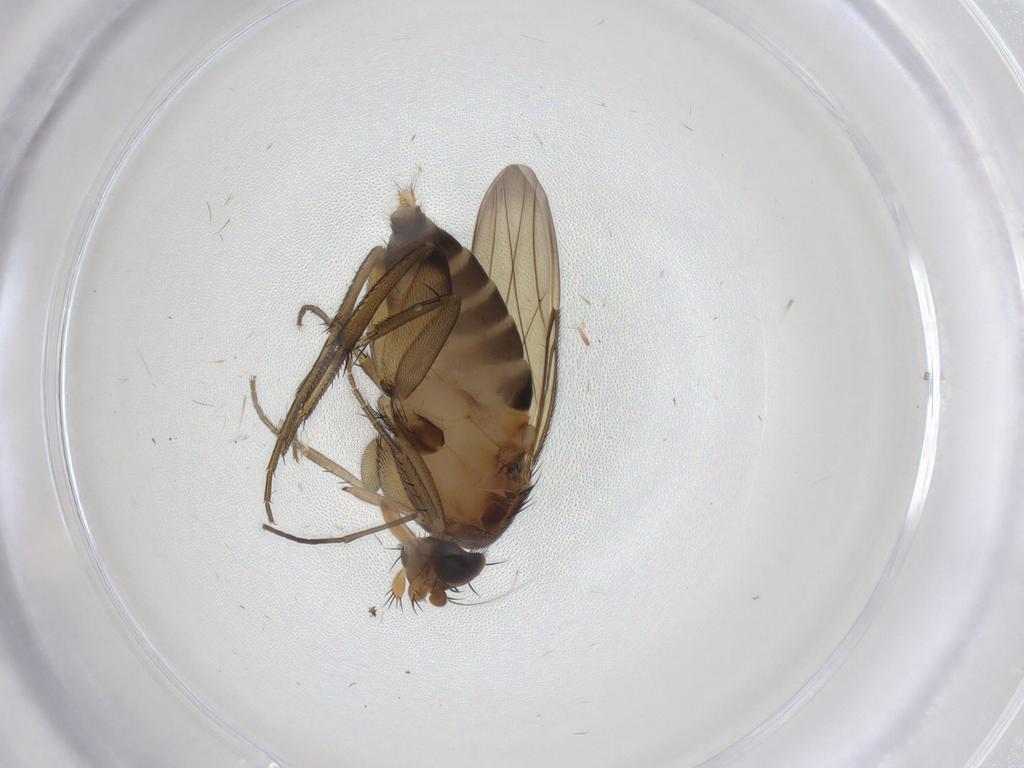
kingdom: Animalia
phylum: Arthropoda
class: Insecta
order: Diptera
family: Phoridae
